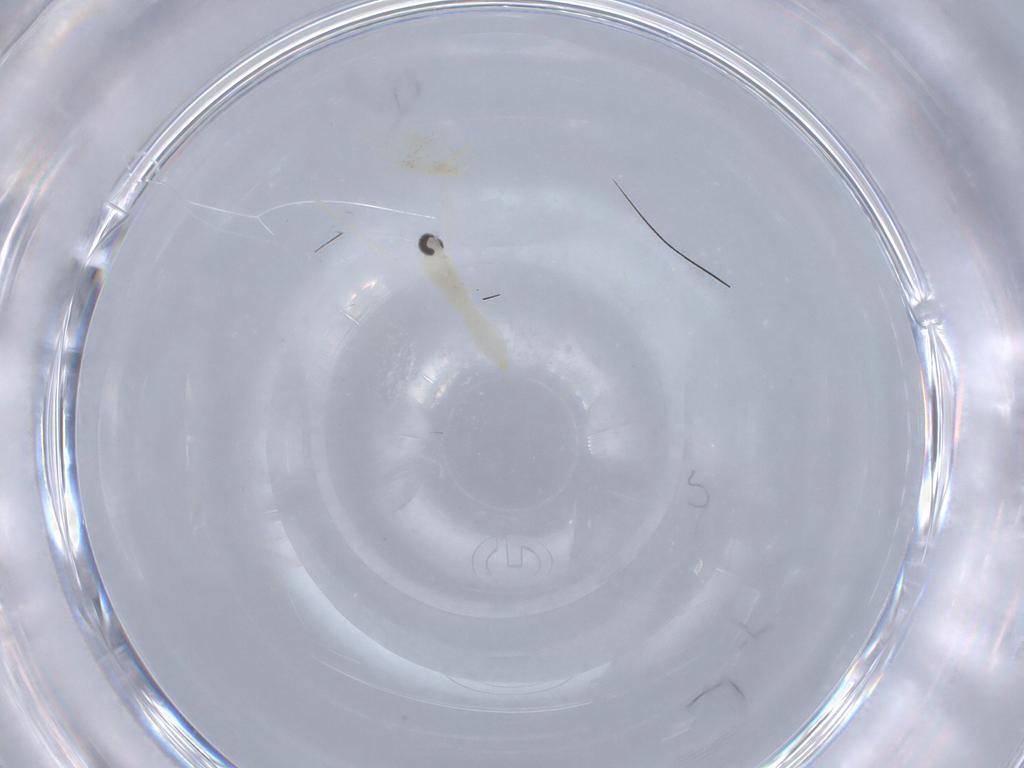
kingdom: Animalia
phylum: Arthropoda
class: Insecta
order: Diptera
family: Cecidomyiidae
